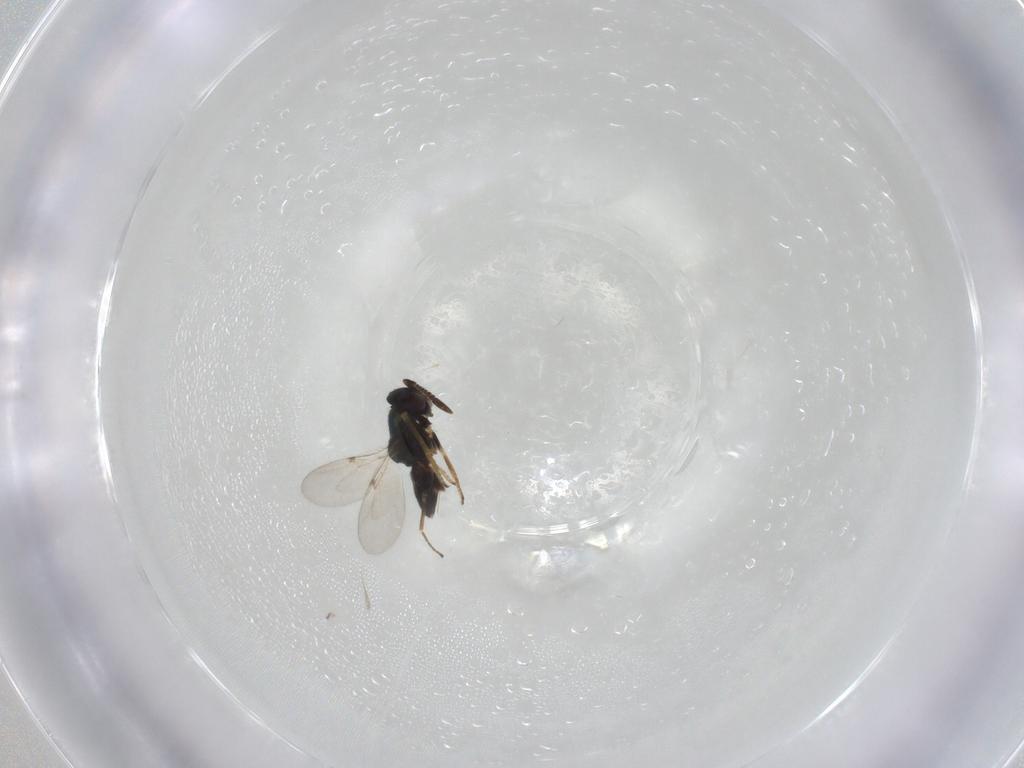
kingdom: Animalia
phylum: Arthropoda
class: Insecta
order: Hymenoptera
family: Encyrtidae
